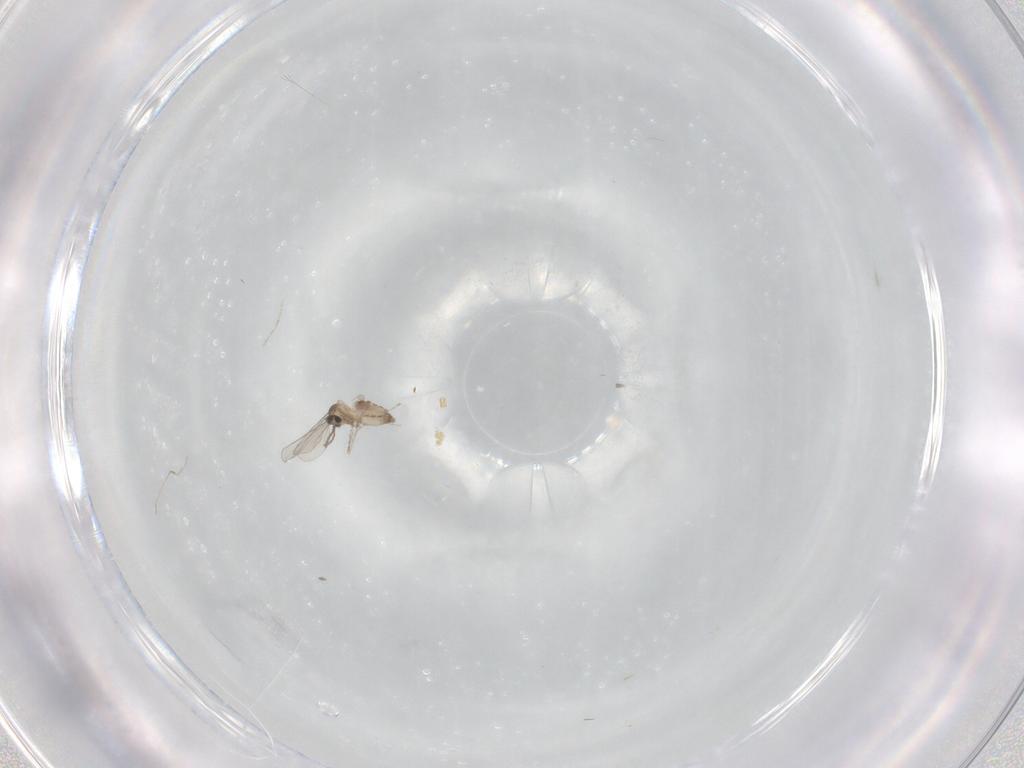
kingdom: Animalia
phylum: Arthropoda
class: Insecta
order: Diptera
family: Cecidomyiidae
